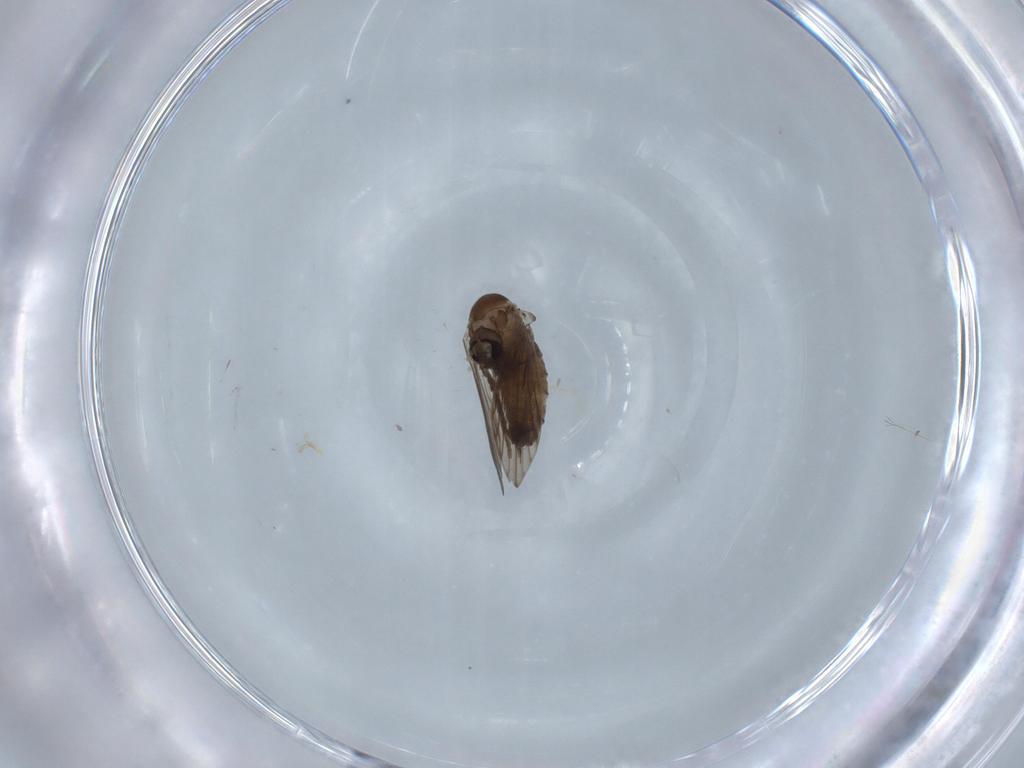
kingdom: Animalia
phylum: Arthropoda
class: Insecta
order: Diptera
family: Psychodidae
